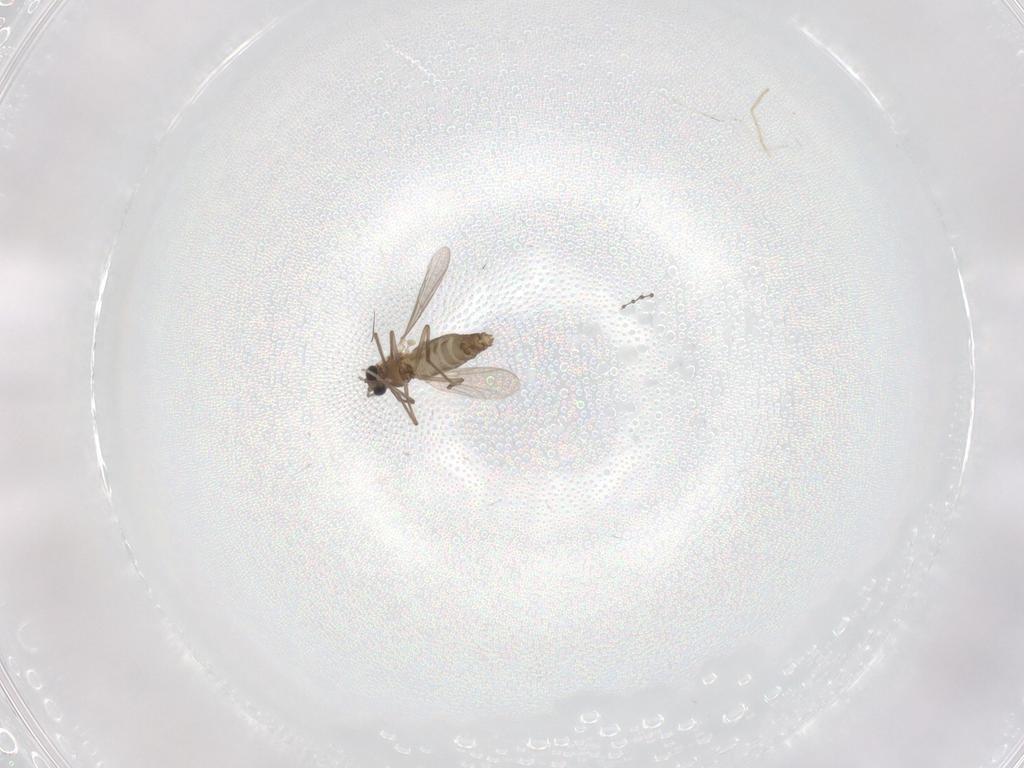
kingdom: Animalia
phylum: Arthropoda
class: Insecta
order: Diptera
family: Chironomidae
